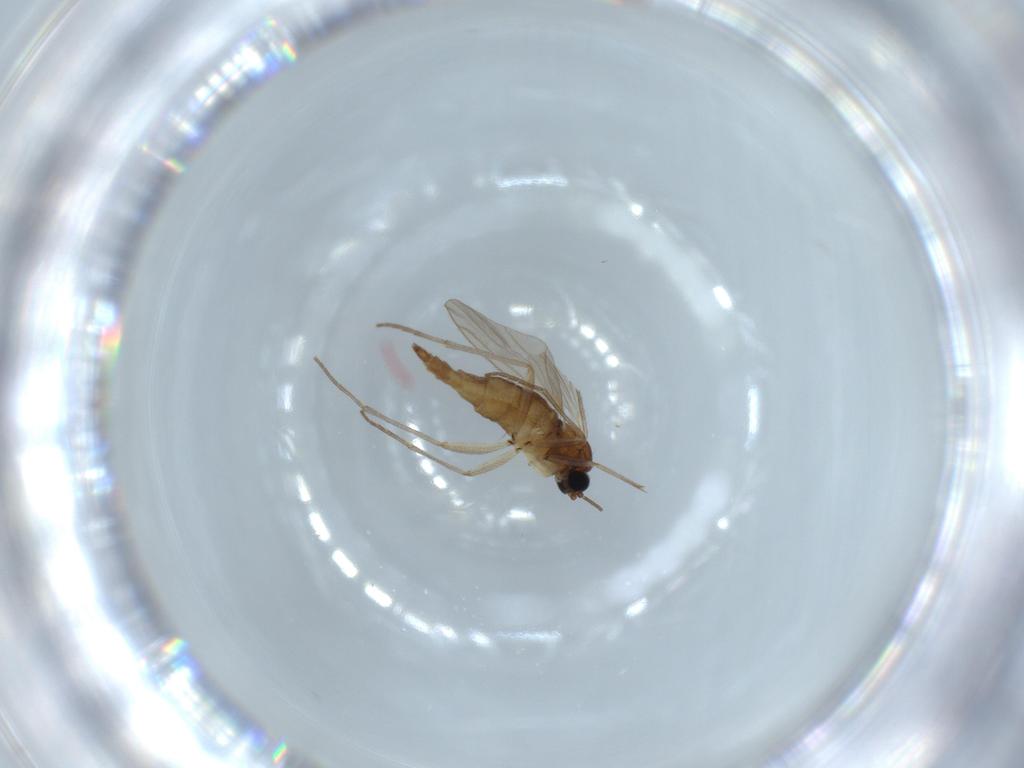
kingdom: Animalia
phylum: Arthropoda
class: Insecta
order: Diptera
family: Sciaridae
